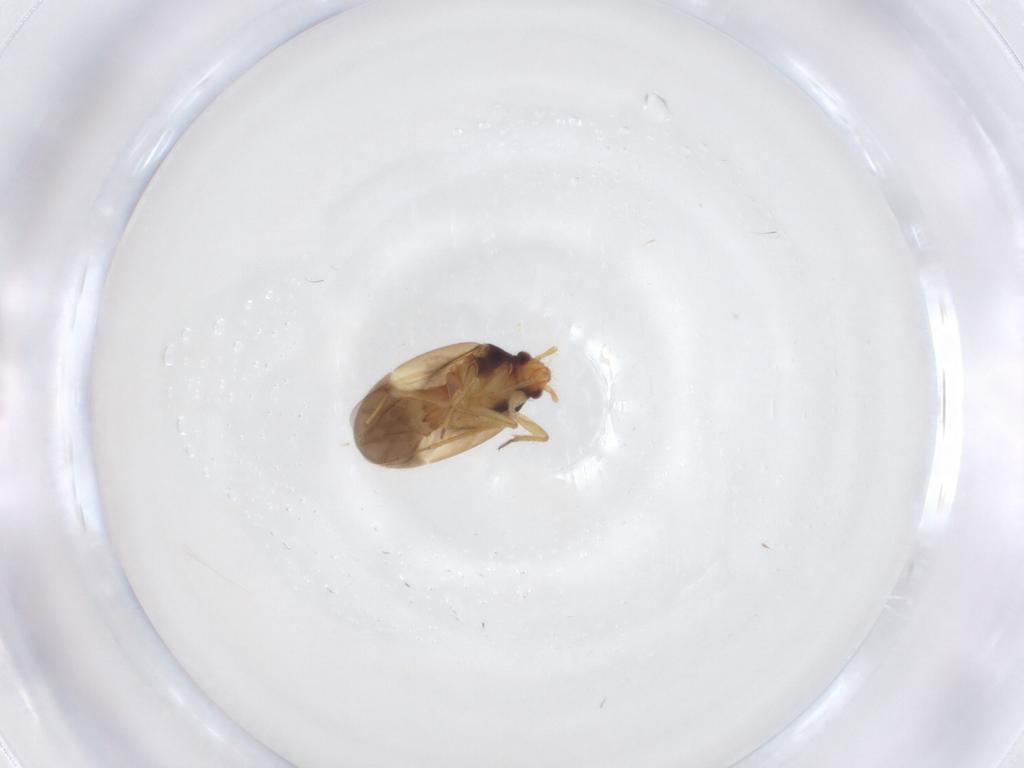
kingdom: Animalia
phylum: Arthropoda
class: Insecta
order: Hemiptera
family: Ceratocombidae
